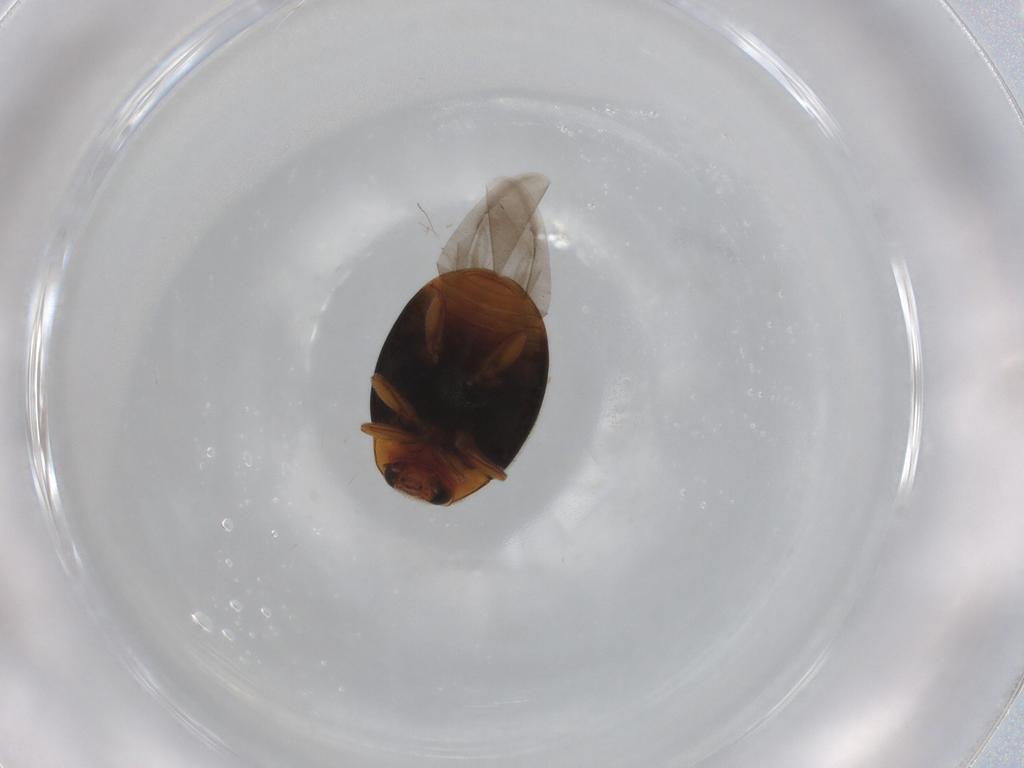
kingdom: Animalia
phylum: Arthropoda
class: Insecta
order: Coleoptera
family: Coccinellidae
